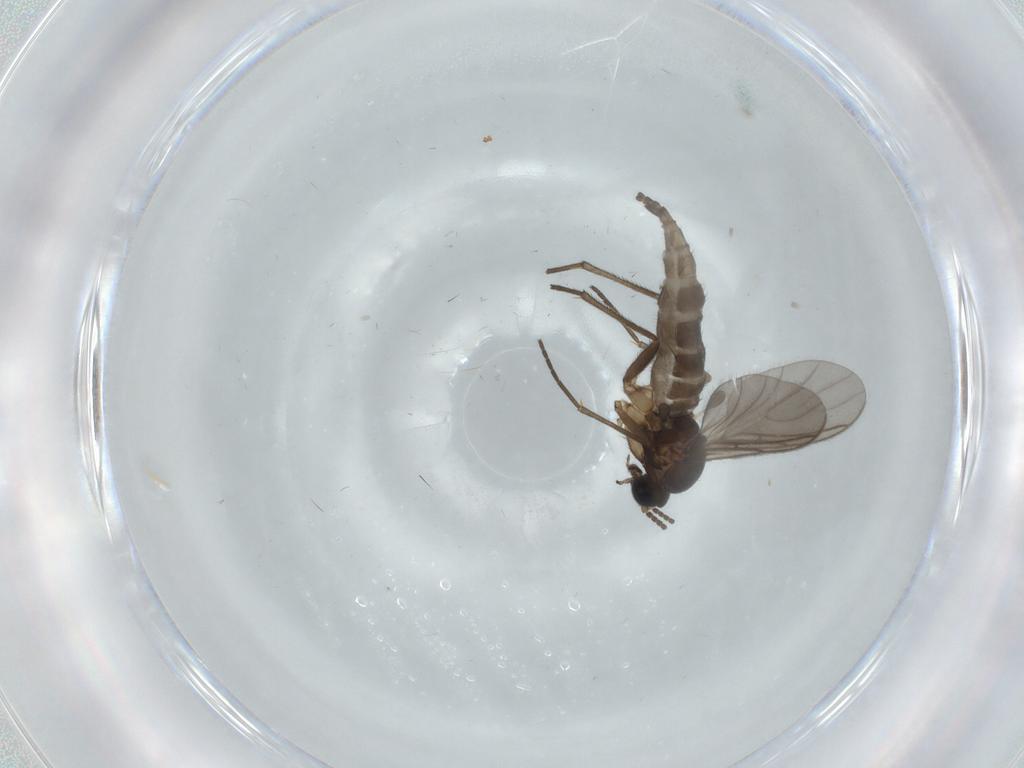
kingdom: Animalia
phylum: Arthropoda
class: Insecta
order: Diptera
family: Sciaridae
